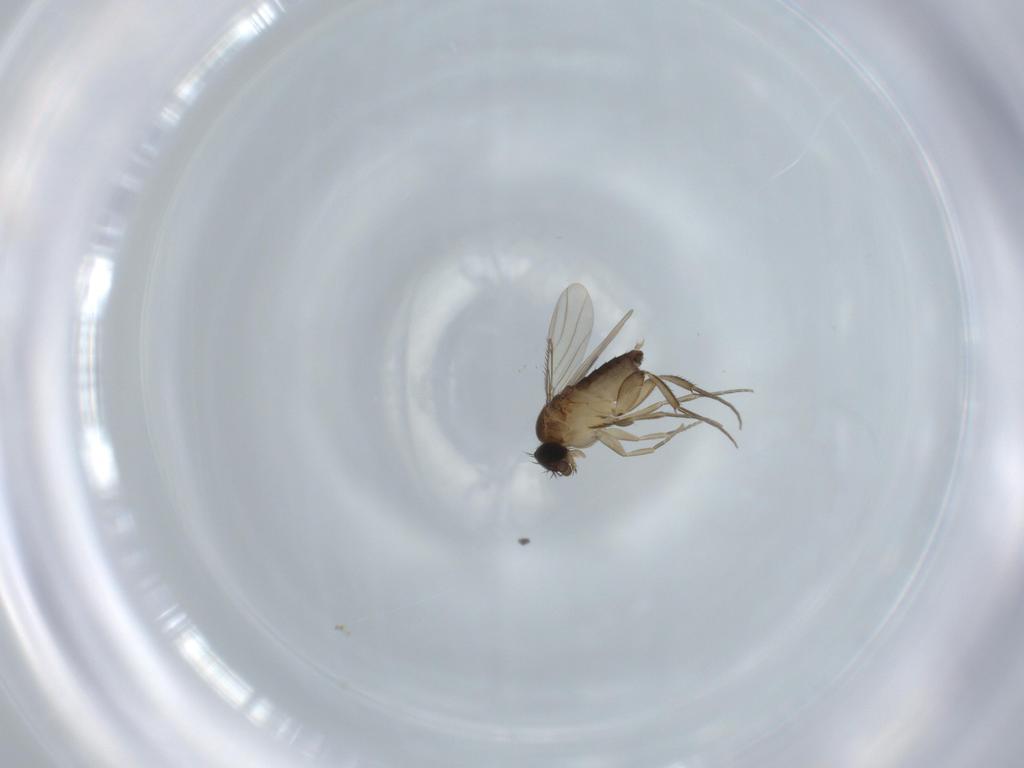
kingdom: Animalia
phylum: Arthropoda
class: Insecta
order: Diptera
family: Phoridae
